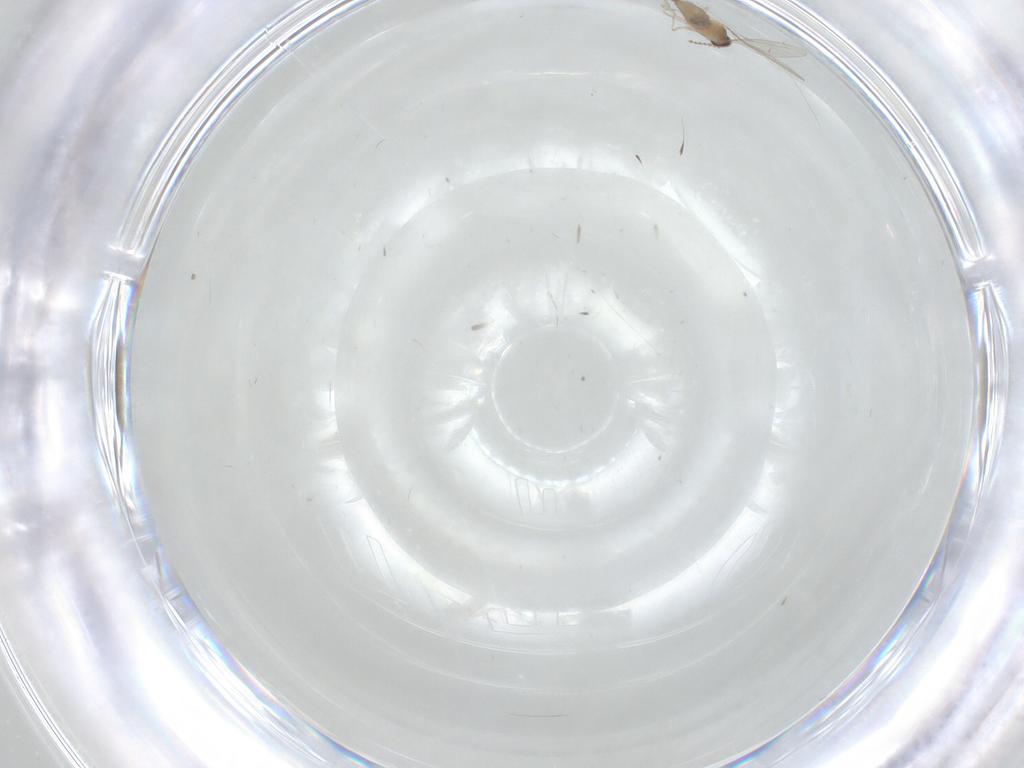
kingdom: Animalia
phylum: Arthropoda
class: Insecta
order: Diptera
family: Cecidomyiidae
